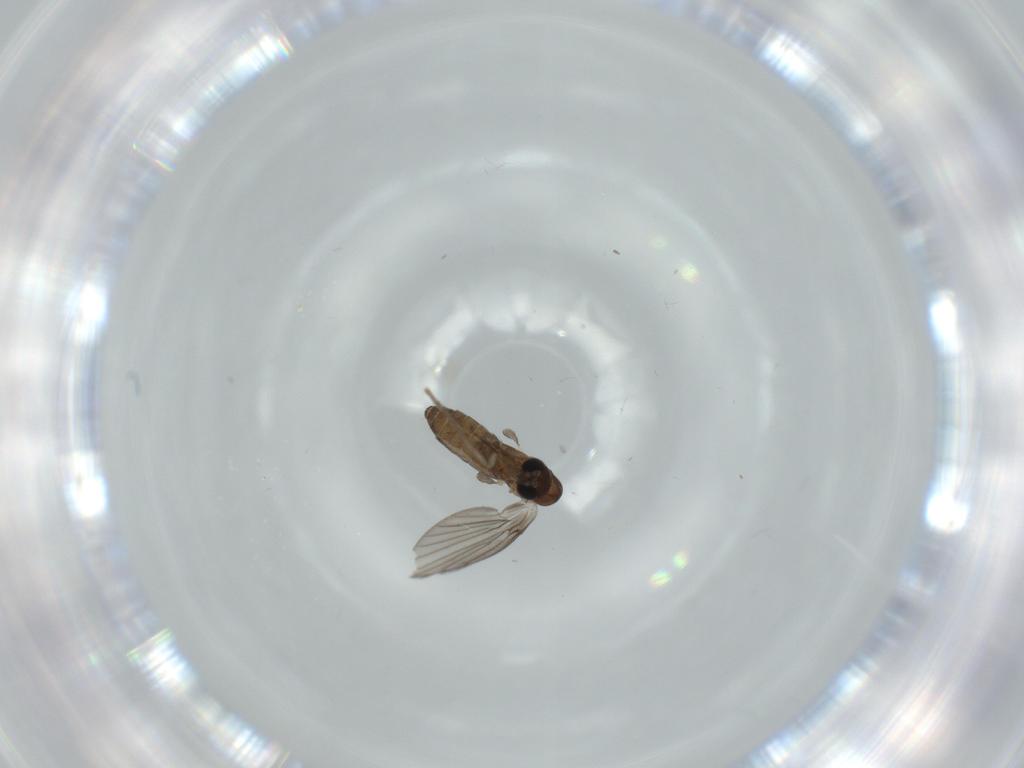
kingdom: Animalia
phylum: Arthropoda
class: Insecta
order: Diptera
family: Psychodidae
